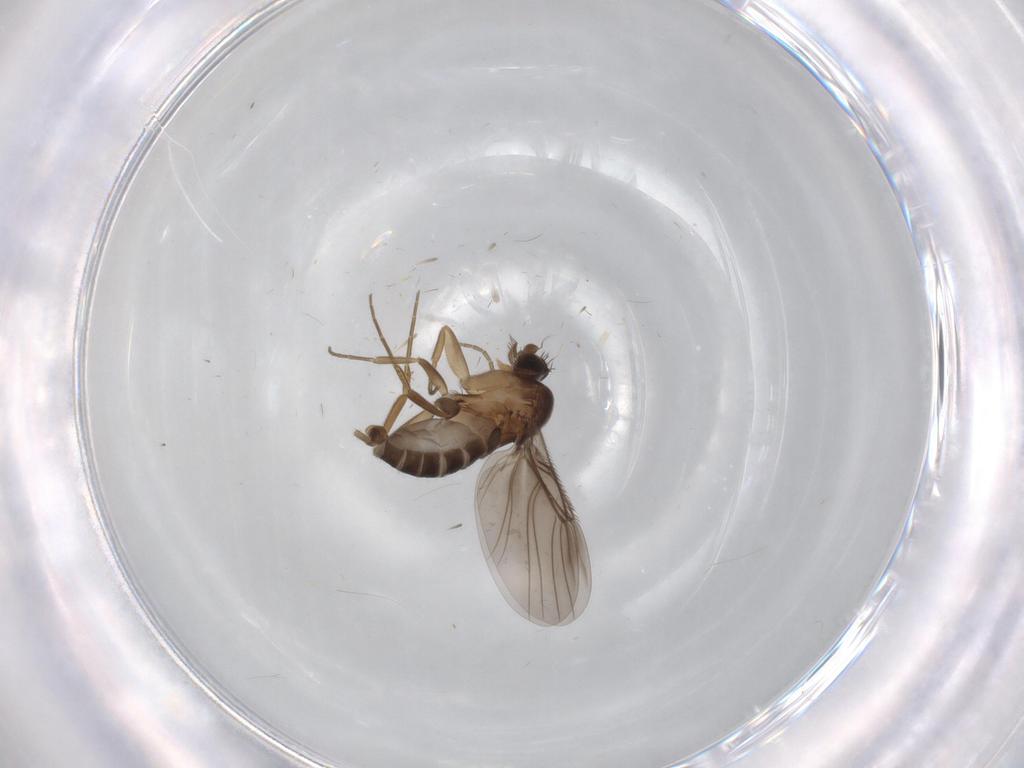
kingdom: Animalia
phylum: Arthropoda
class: Insecta
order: Diptera
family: Phoridae
